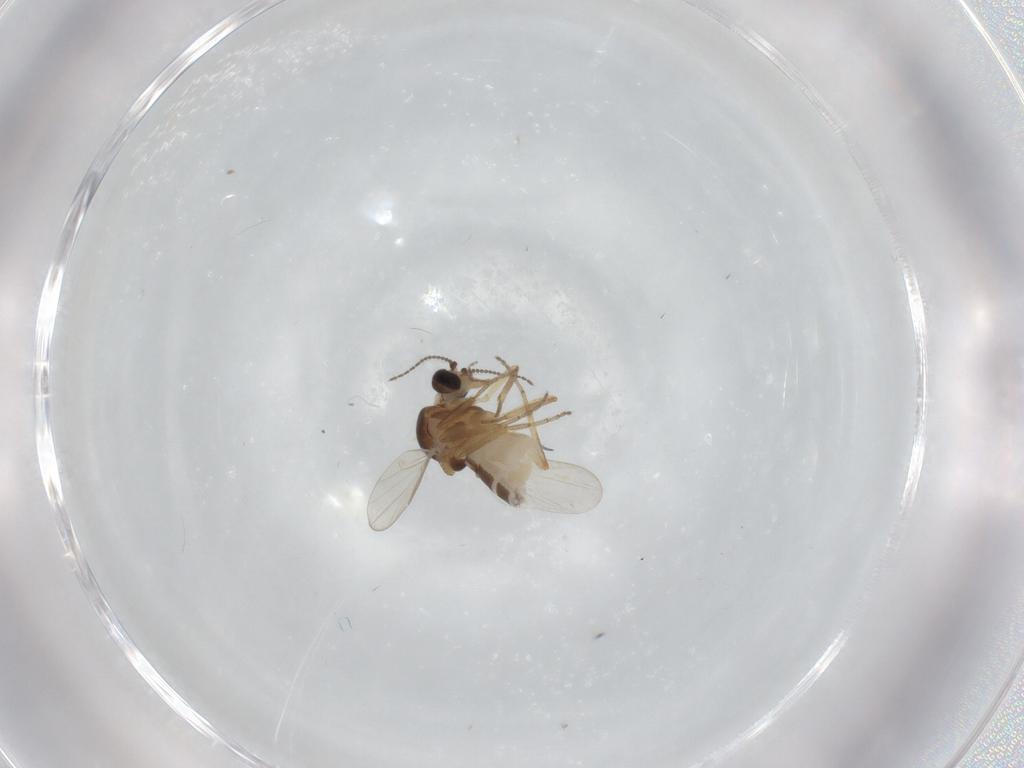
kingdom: Animalia
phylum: Arthropoda
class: Insecta
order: Diptera
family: Ceratopogonidae
